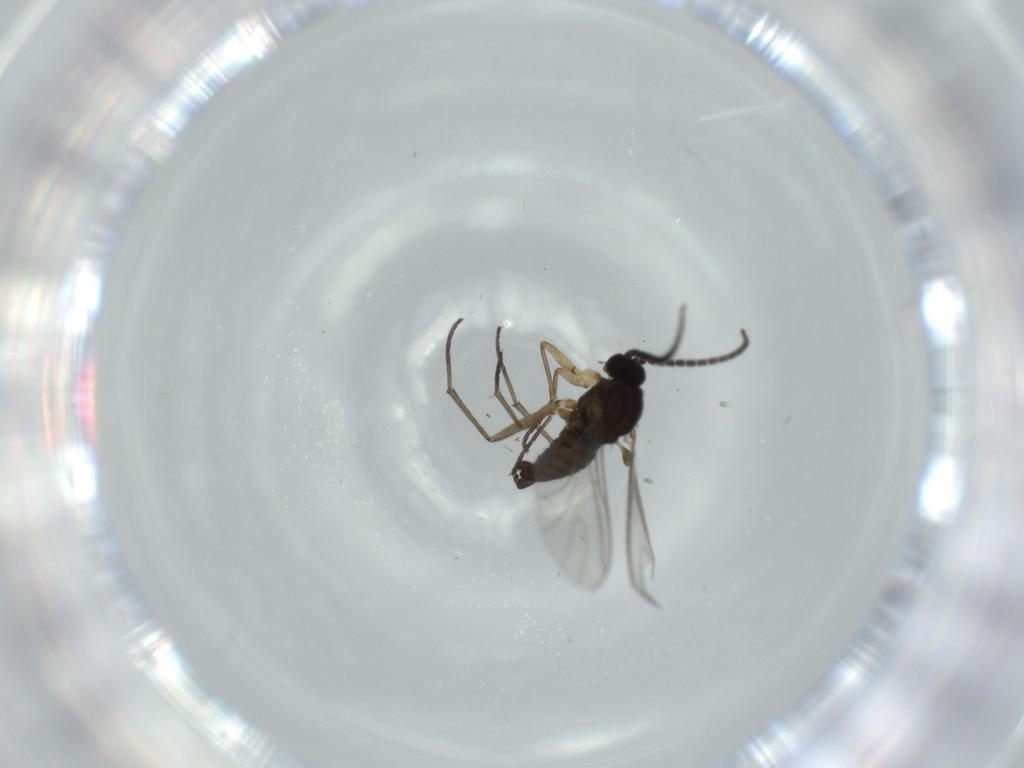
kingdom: Animalia
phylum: Arthropoda
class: Insecta
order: Diptera
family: Sciaridae
